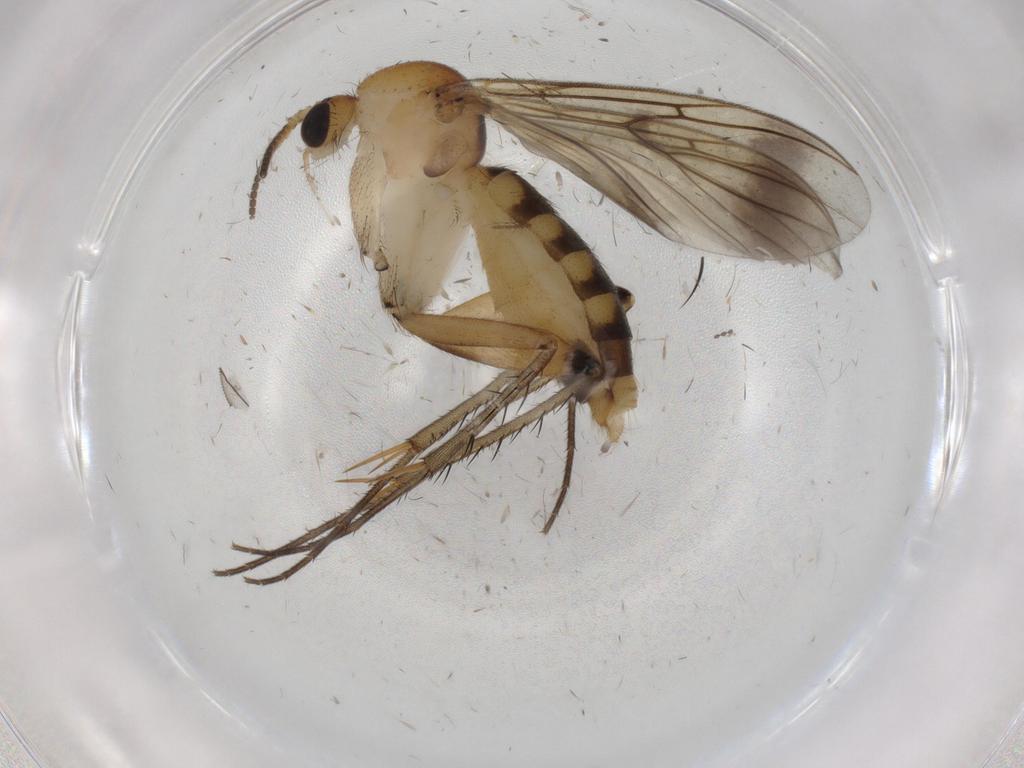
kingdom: Animalia
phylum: Arthropoda
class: Insecta
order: Diptera
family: Mycetophilidae
